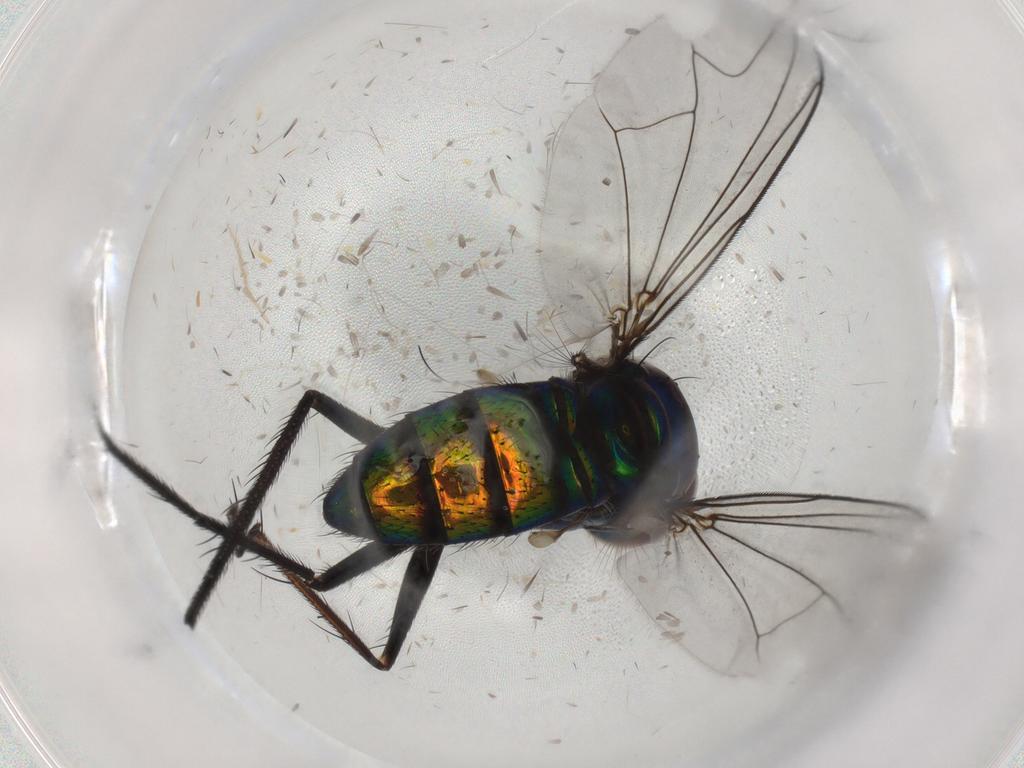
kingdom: Animalia
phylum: Arthropoda
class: Insecta
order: Diptera
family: Dolichopodidae
